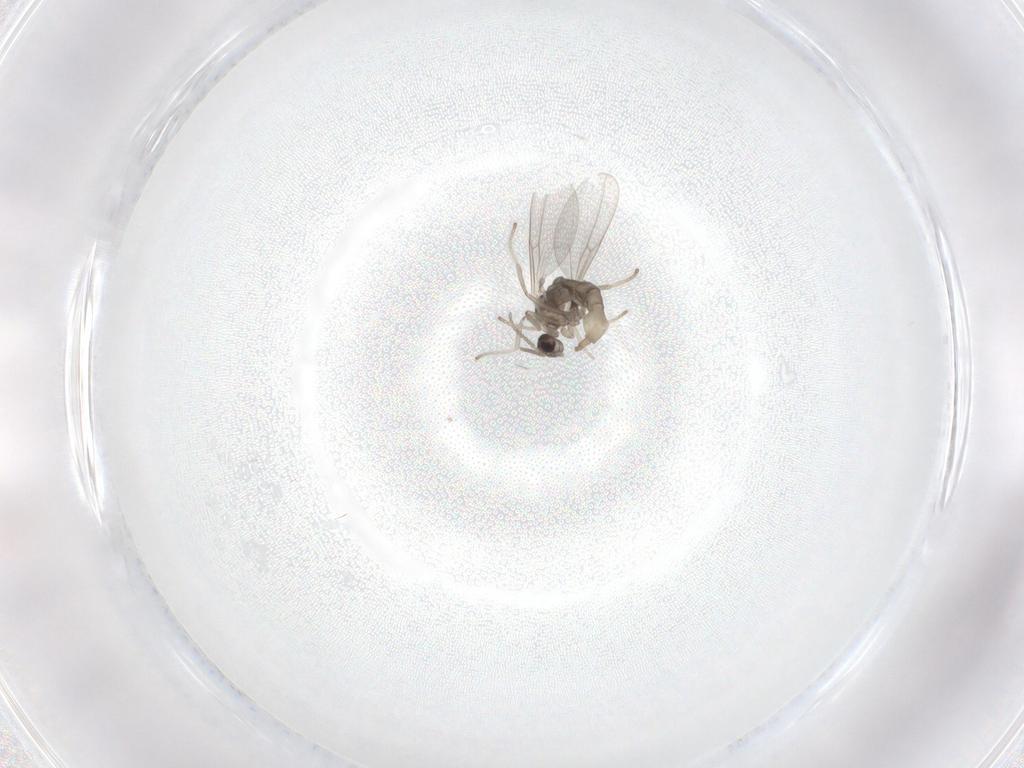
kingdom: Animalia
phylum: Arthropoda
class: Insecta
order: Diptera
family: Cecidomyiidae
